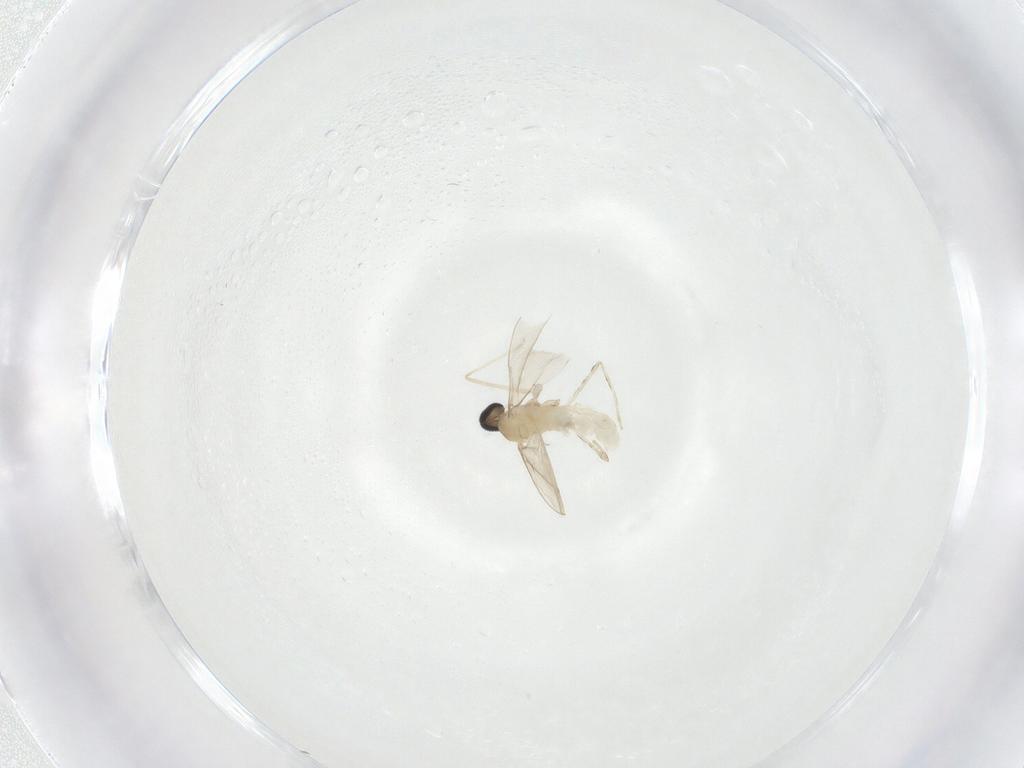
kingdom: Animalia
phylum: Arthropoda
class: Insecta
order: Diptera
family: Cecidomyiidae
